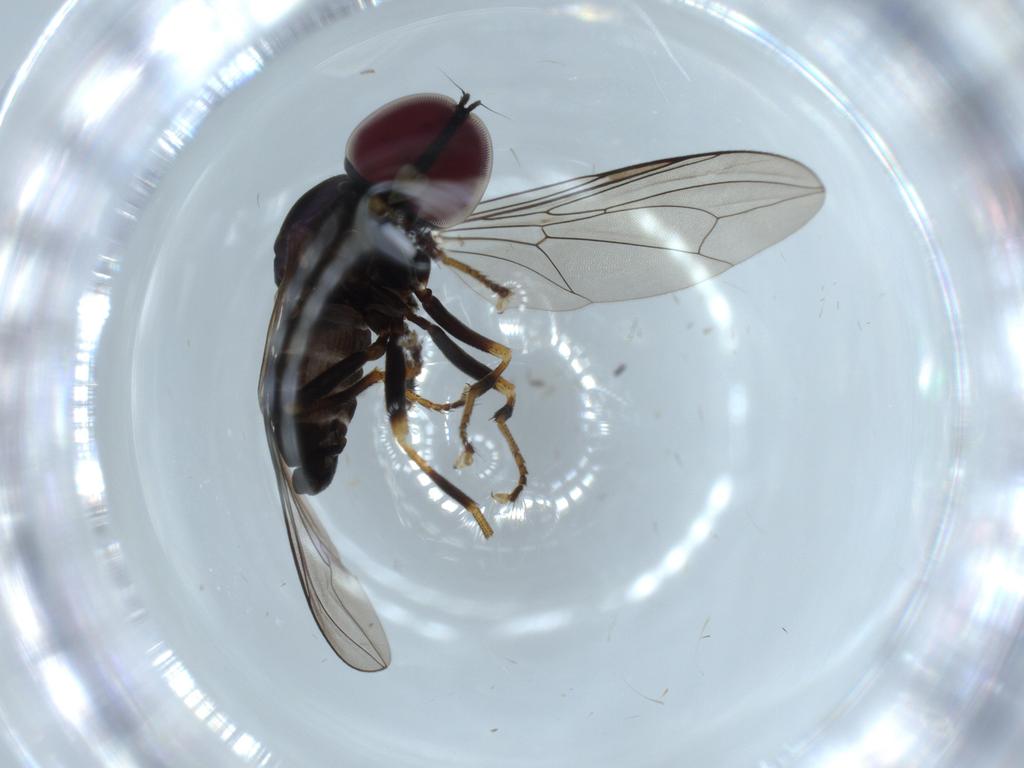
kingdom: Animalia
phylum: Arthropoda
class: Insecta
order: Diptera
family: Pipunculidae
